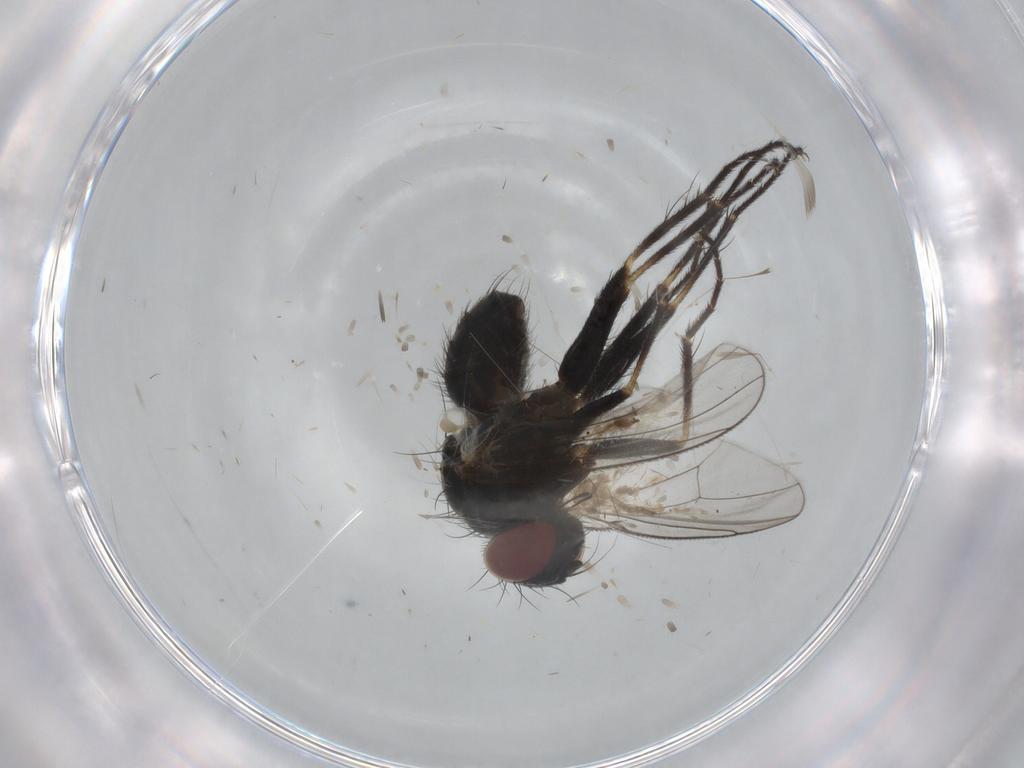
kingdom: Animalia
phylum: Arthropoda
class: Insecta
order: Diptera
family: Muscidae
